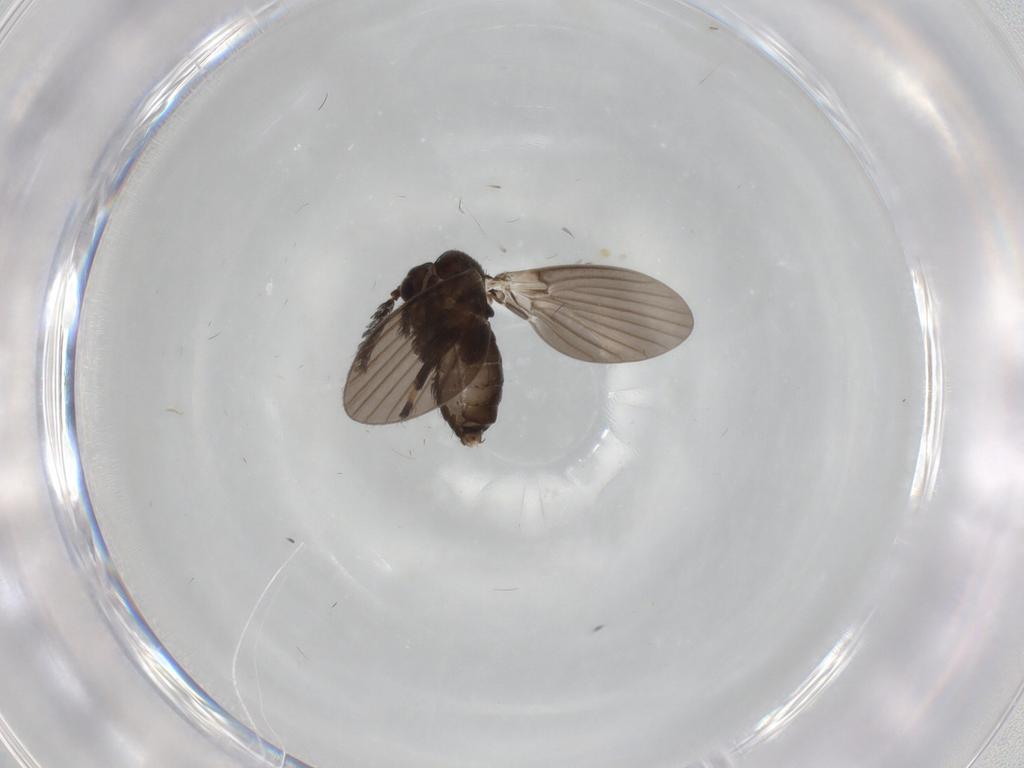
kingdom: Animalia
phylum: Arthropoda
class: Insecta
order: Diptera
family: Psychodidae
